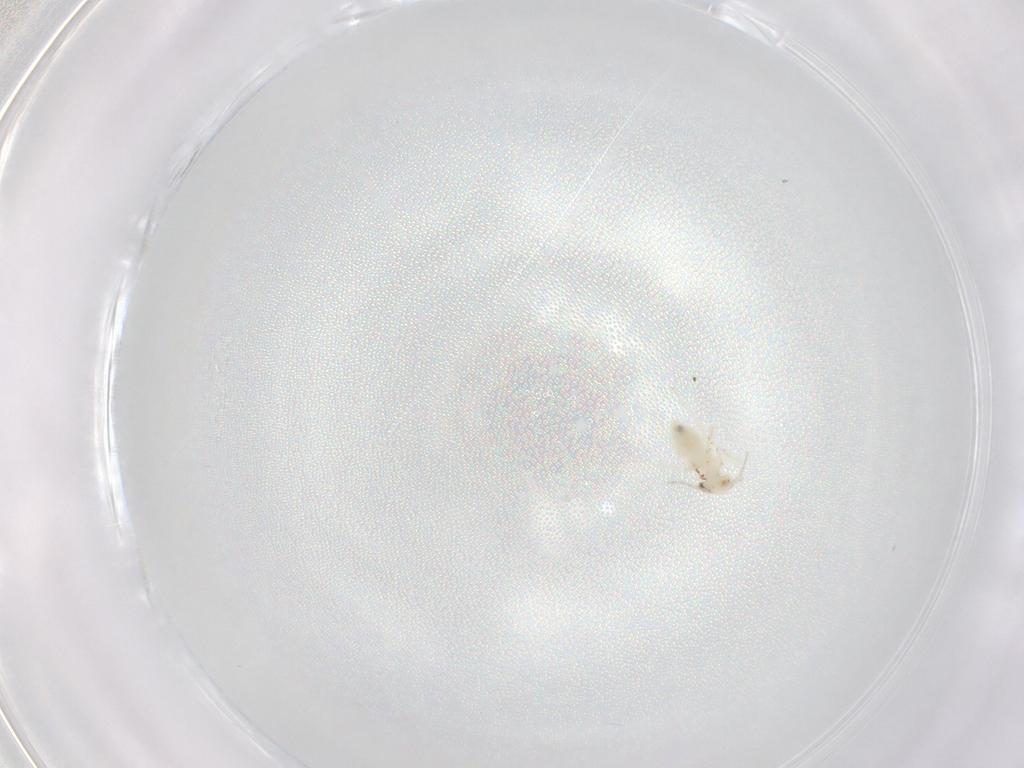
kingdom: Animalia
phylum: Arthropoda
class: Insecta
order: Psocodea
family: Lepidopsocidae
